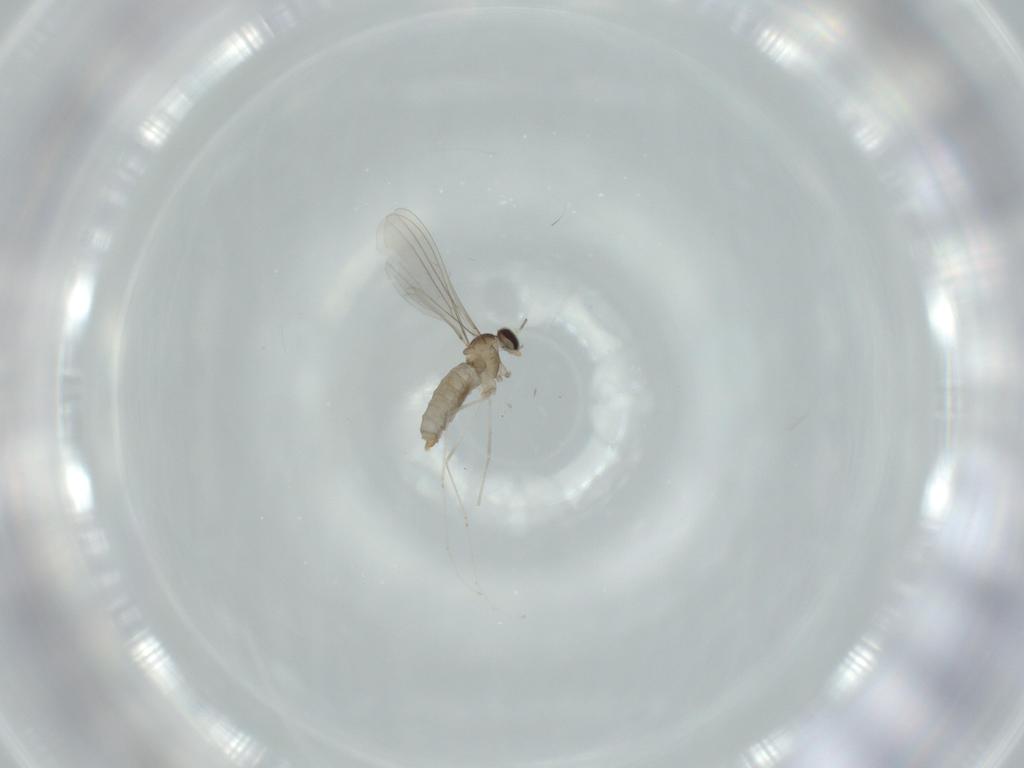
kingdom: Animalia
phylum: Arthropoda
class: Insecta
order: Diptera
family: Cecidomyiidae
